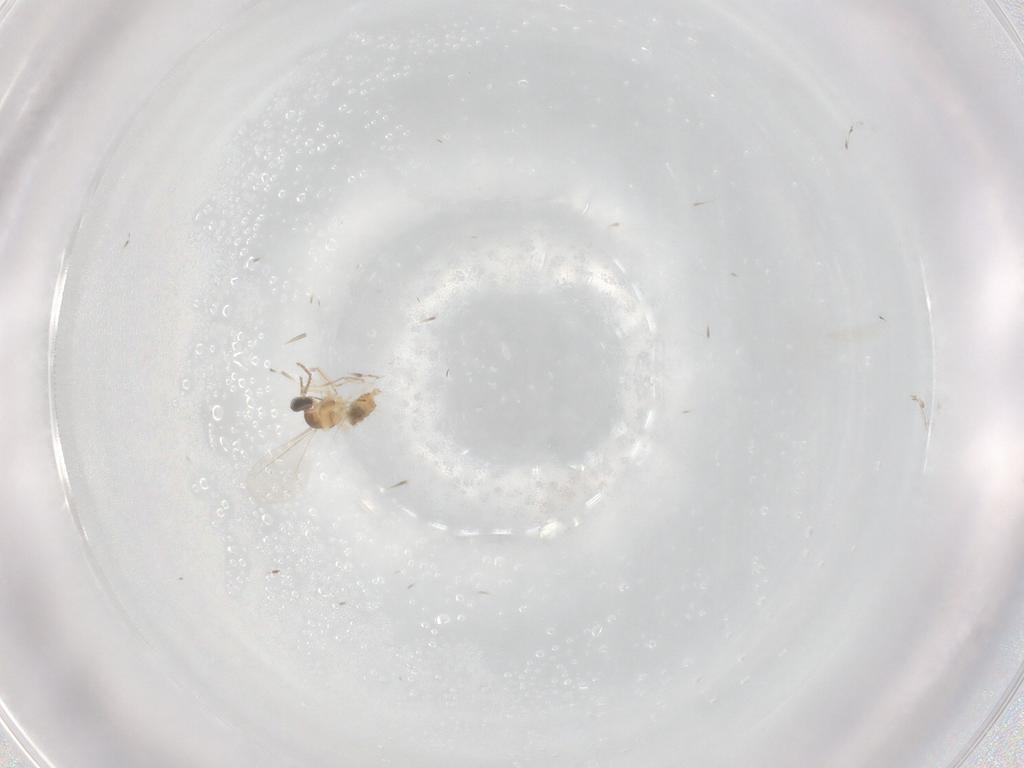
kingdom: Animalia
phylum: Arthropoda
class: Insecta
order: Diptera
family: Cecidomyiidae
